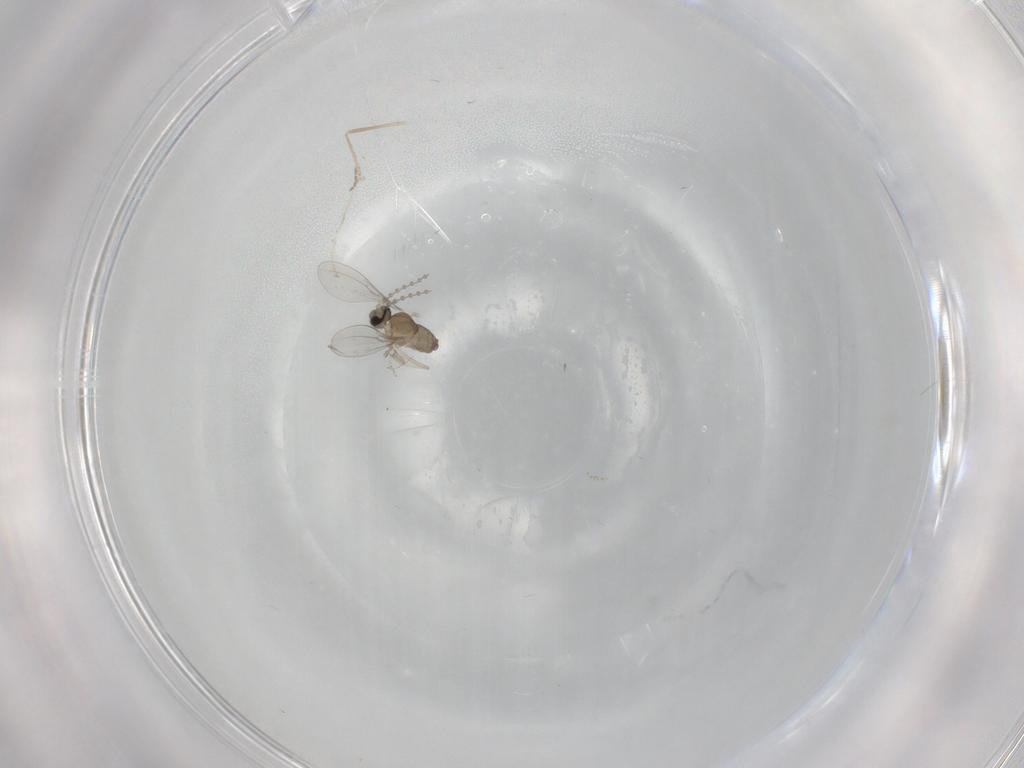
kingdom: Animalia
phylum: Arthropoda
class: Insecta
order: Diptera
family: Cecidomyiidae
